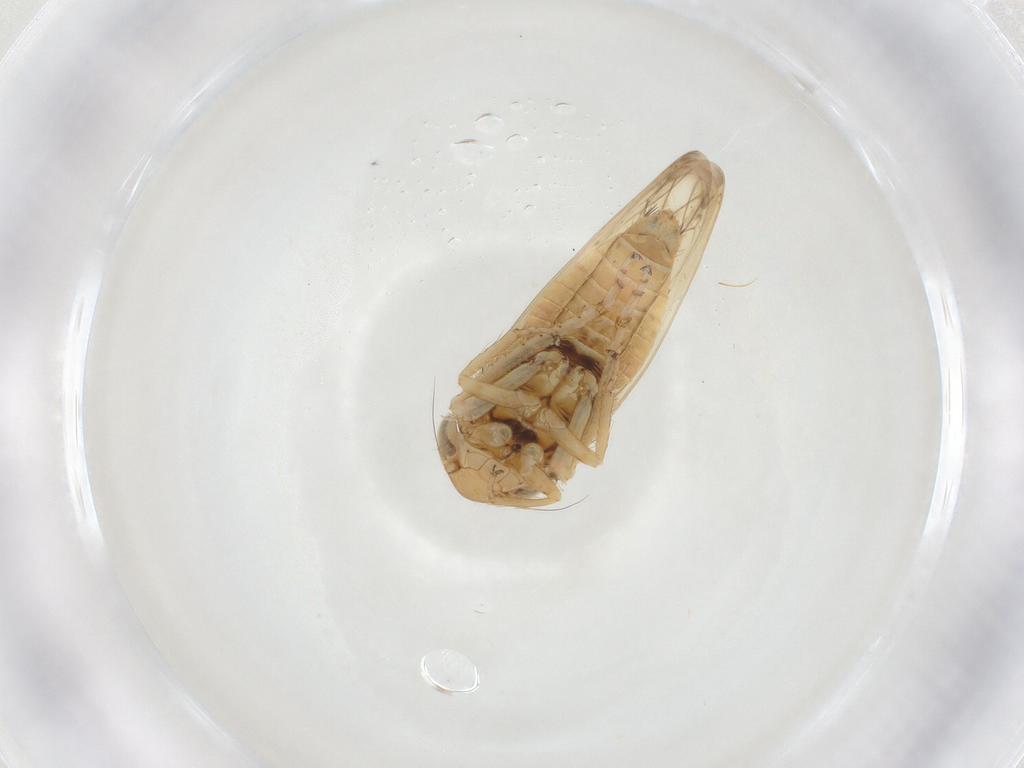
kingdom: Animalia
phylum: Arthropoda
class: Insecta
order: Hemiptera
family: Cicadellidae
